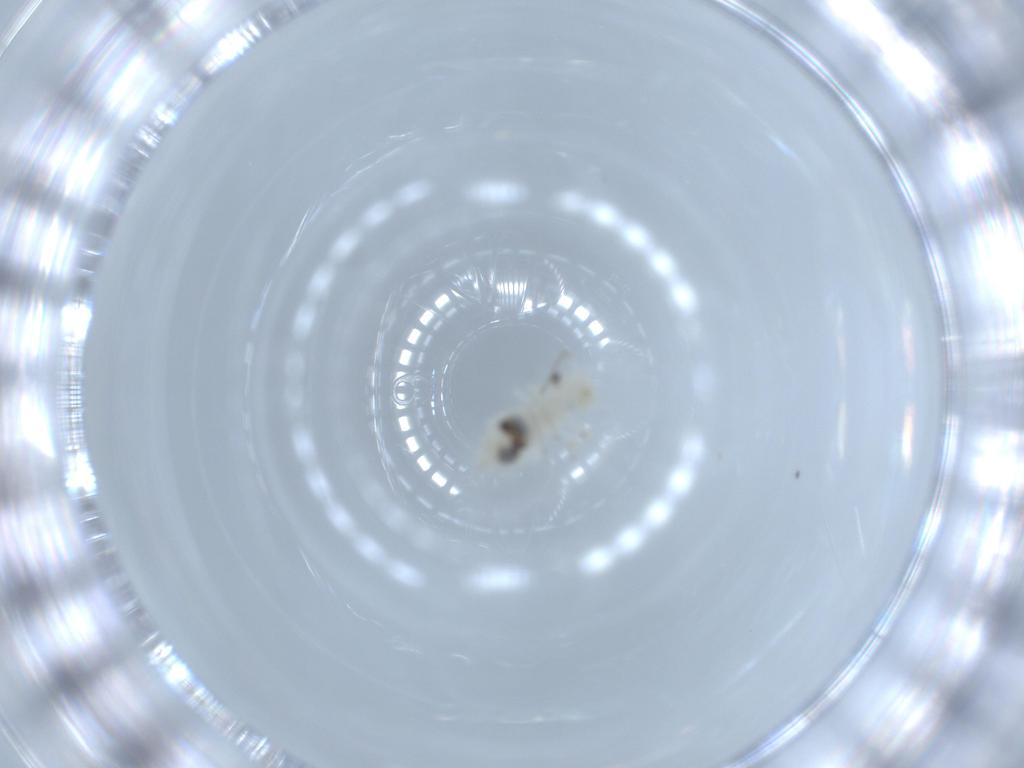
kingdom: Animalia
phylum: Arthropoda
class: Insecta
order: Psocodea
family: Caeciliusidae
